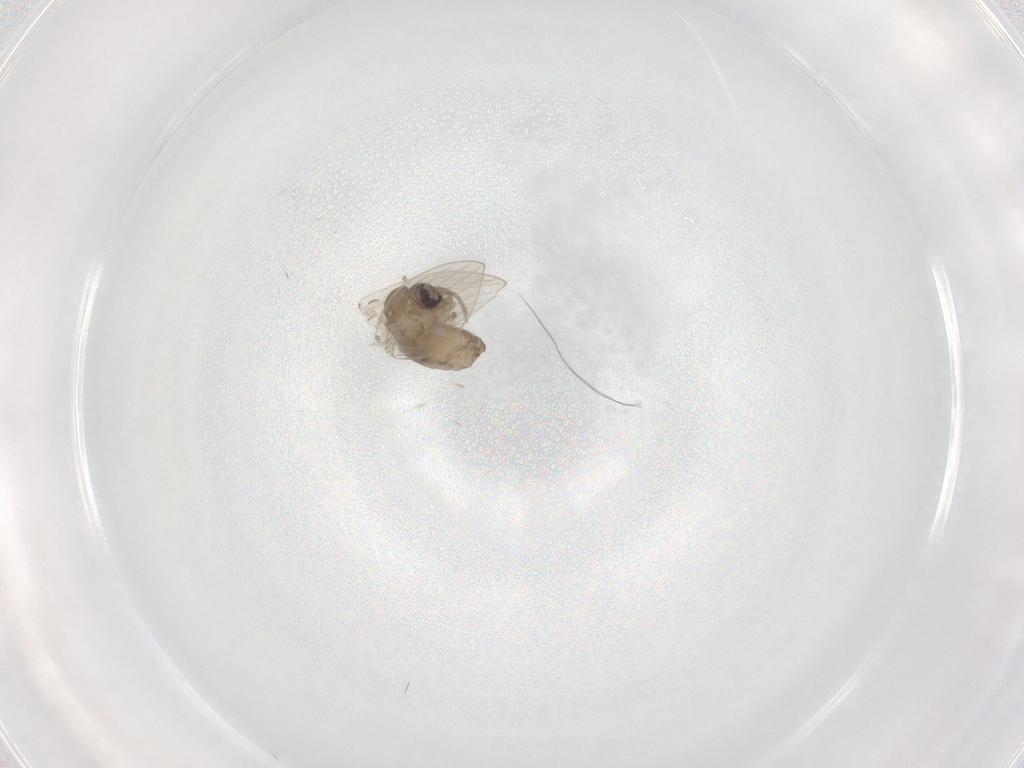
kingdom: Animalia
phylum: Arthropoda
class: Insecta
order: Diptera
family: Psychodidae
